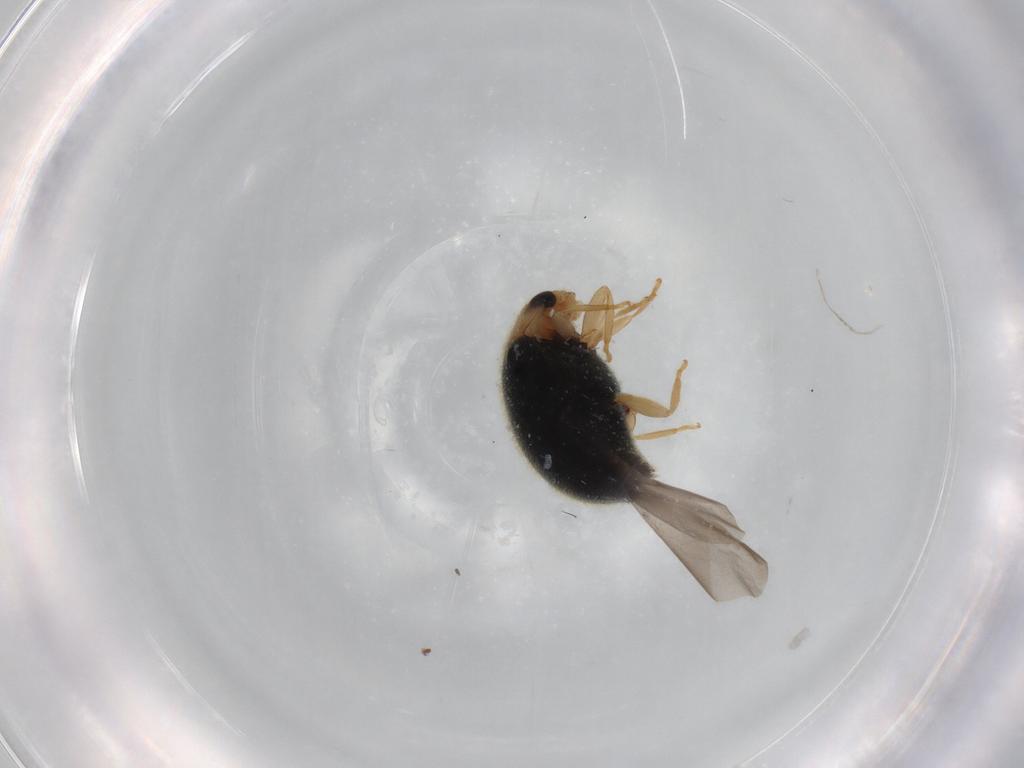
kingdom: Animalia
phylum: Arthropoda
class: Insecta
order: Coleoptera
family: Coccinellidae
